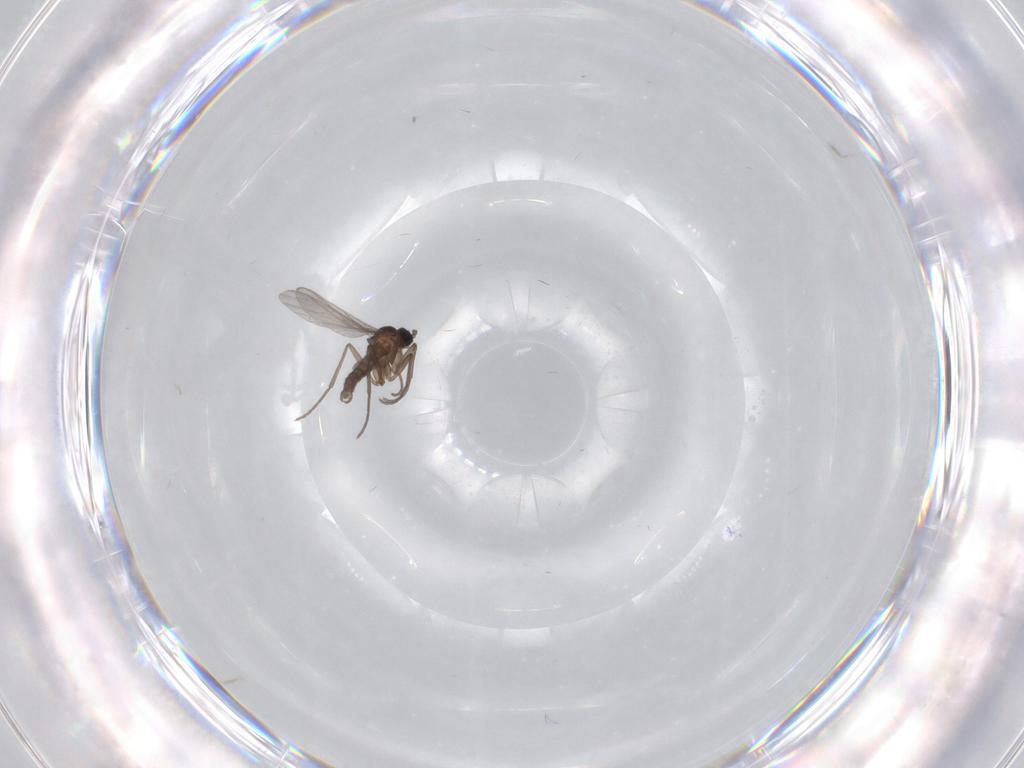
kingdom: Animalia
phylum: Arthropoda
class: Insecta
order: Diptera
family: Sciaridae
